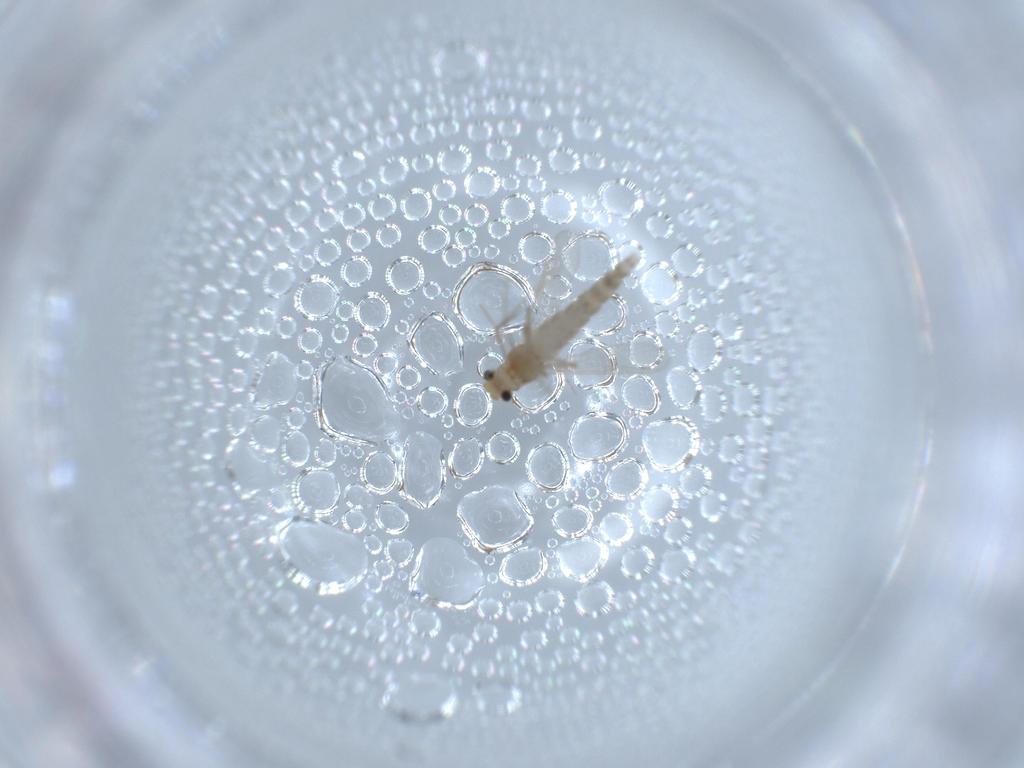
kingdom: Animalia
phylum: Arthropoda
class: Insecta
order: Diptera
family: Chironomidae
